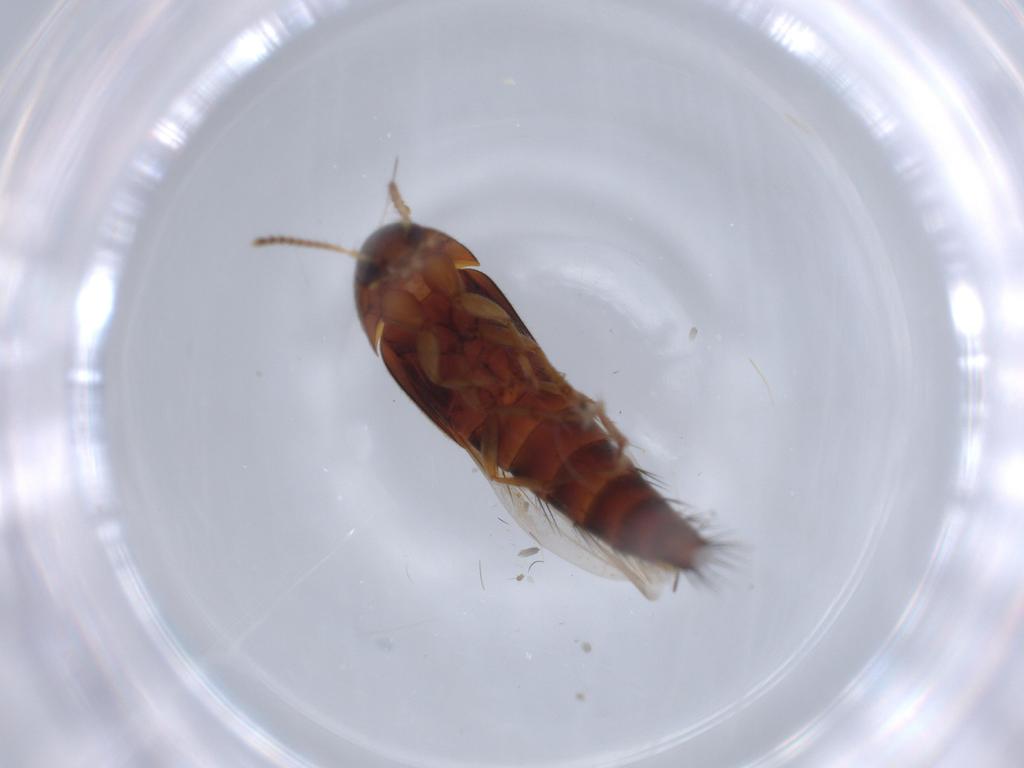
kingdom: Animalia
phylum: Arthropoda
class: Insecta
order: Coleoptera
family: Staphylinidae
